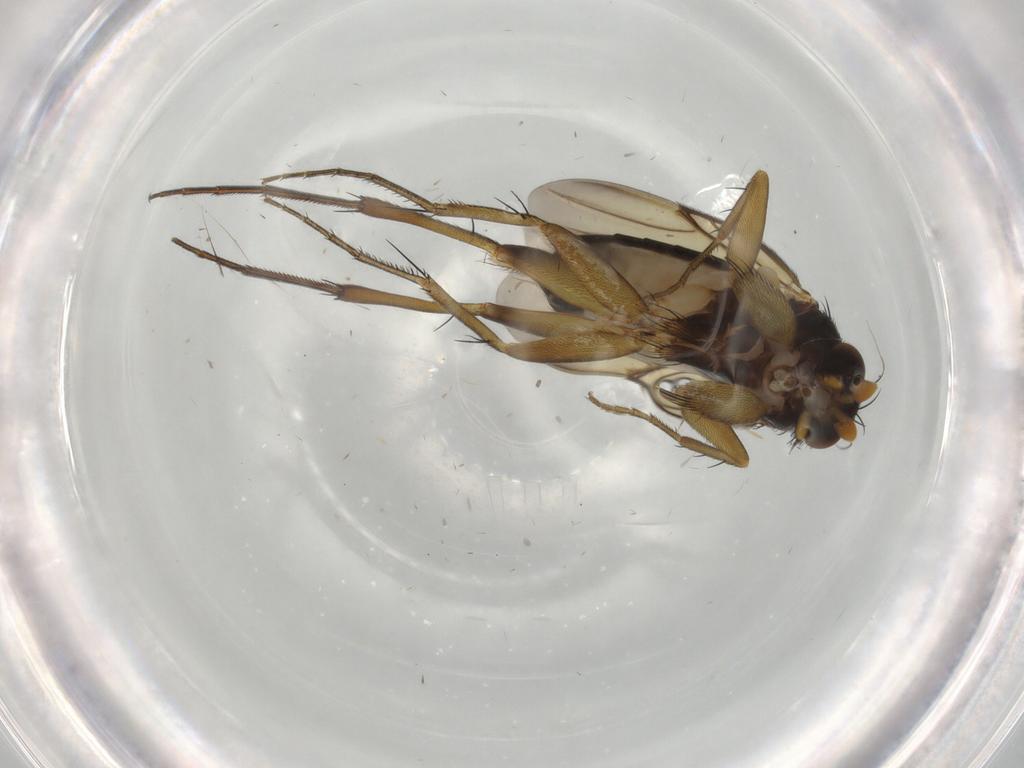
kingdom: Animalia
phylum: Arthropoda
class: Insecta
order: Diptera
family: Phoridae
